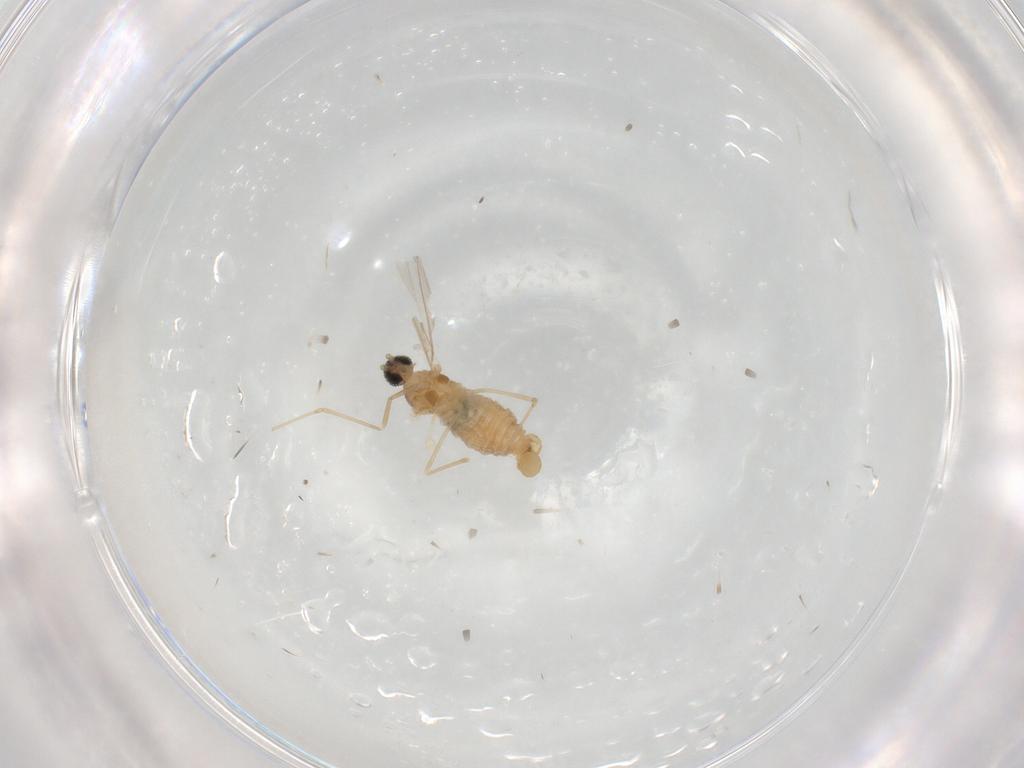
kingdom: Animalia
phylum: Arthropoda
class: Insecta
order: Diptera
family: Cecidomyiidae
